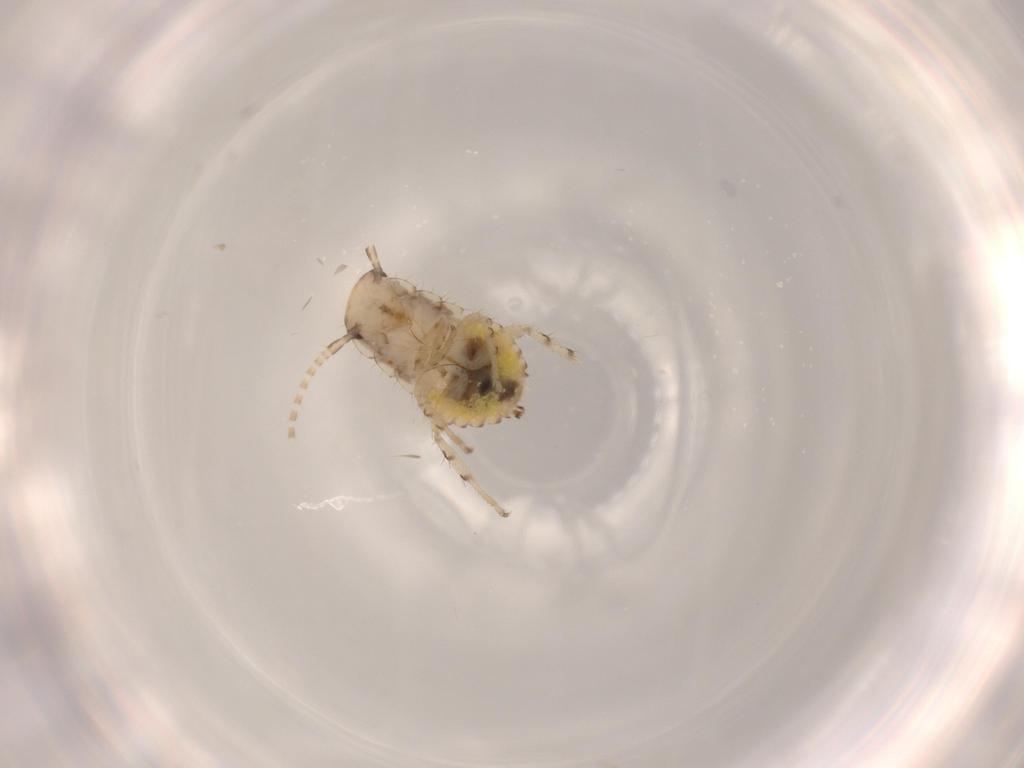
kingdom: Animalia
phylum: Arthropoda
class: Insecta
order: Blattodea
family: Ectobiidae
